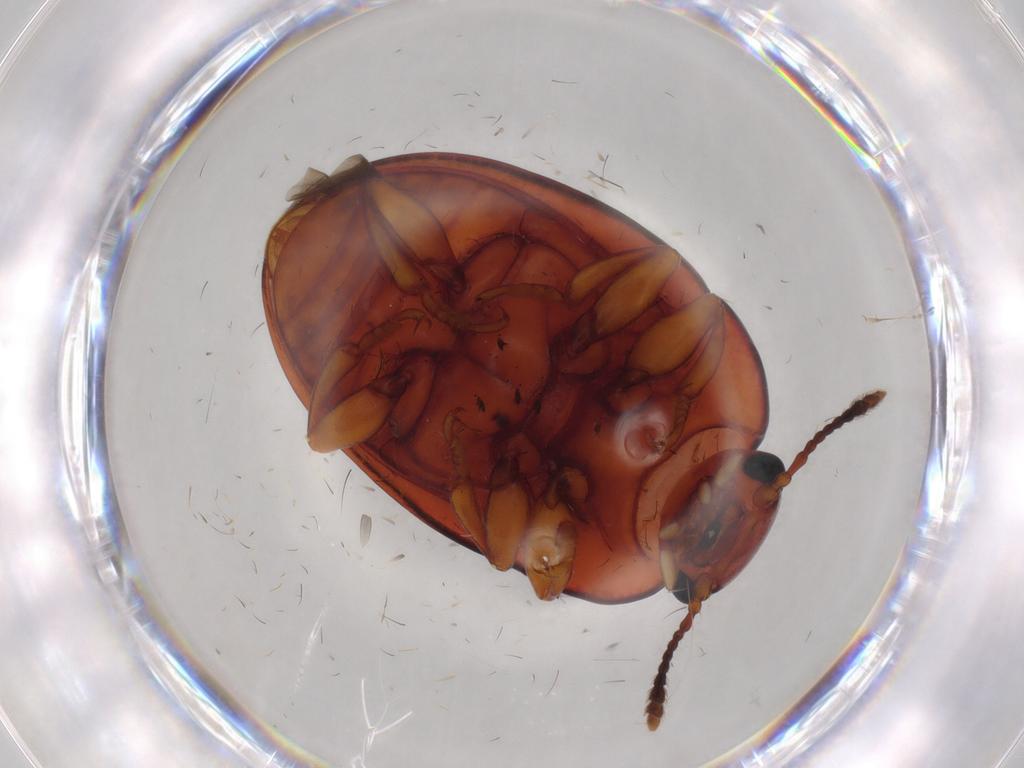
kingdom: Animalia
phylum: Arthropoda
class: Insecta
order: Coleoptera
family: Erotylidae
